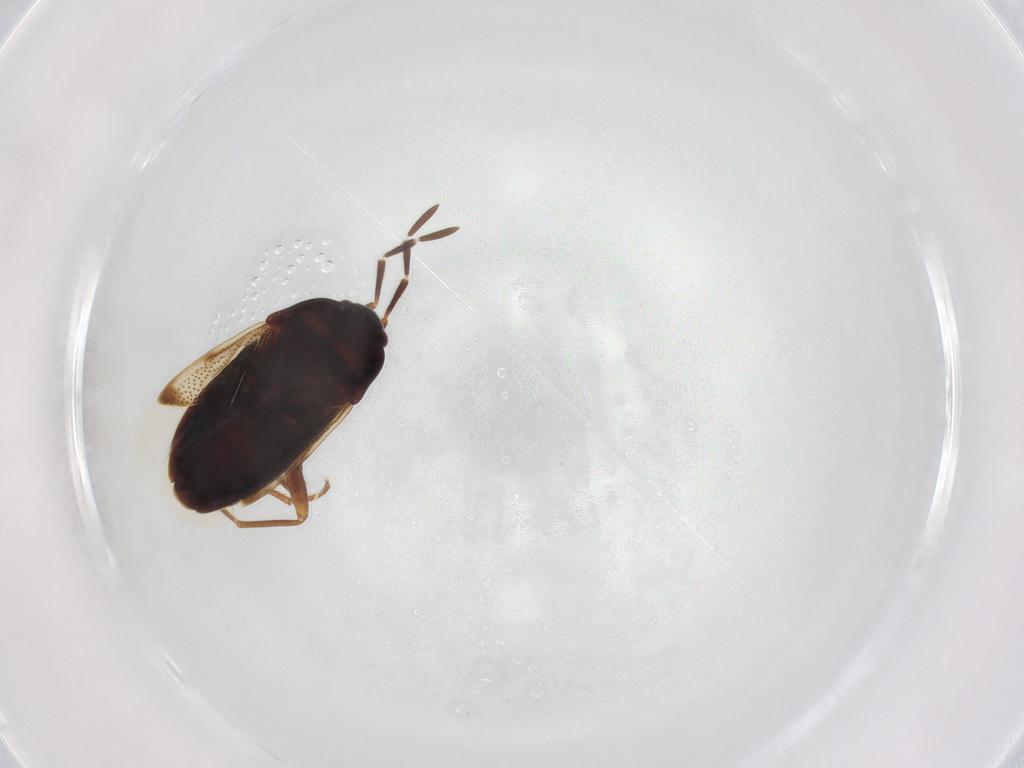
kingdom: Animalia
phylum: Arthropoda
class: Insecta
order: Hemiptera
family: Rhyparochromidae
